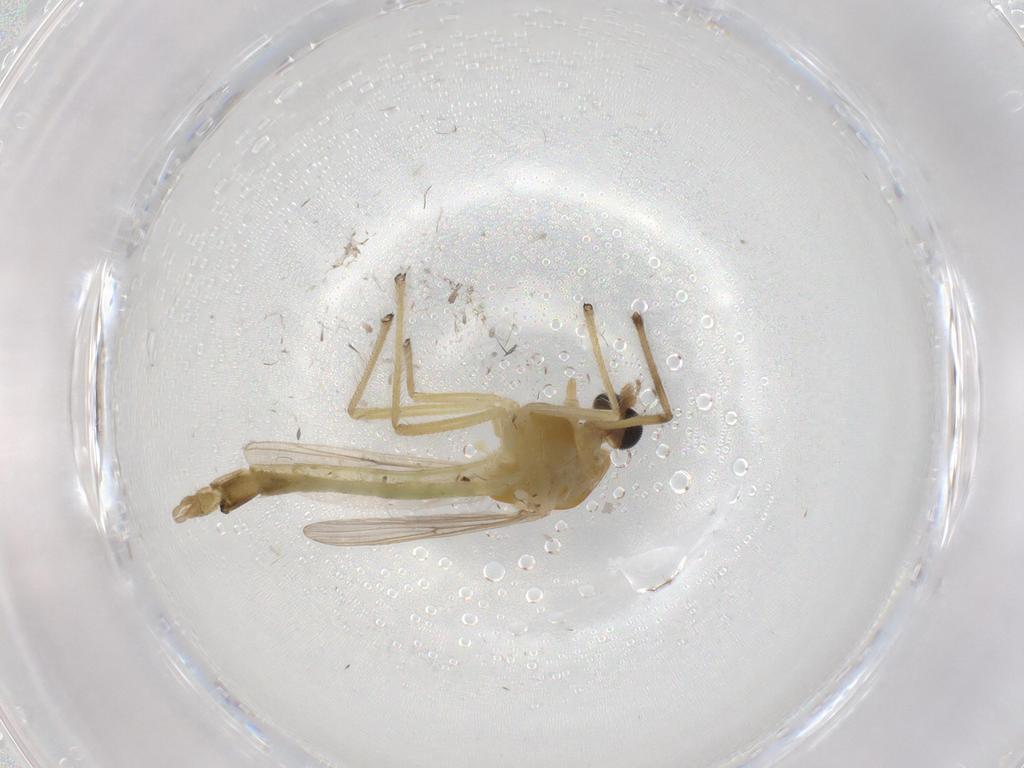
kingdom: Animalia
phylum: Arthropoda
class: Insecta
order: Diptera
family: Chironomidae
